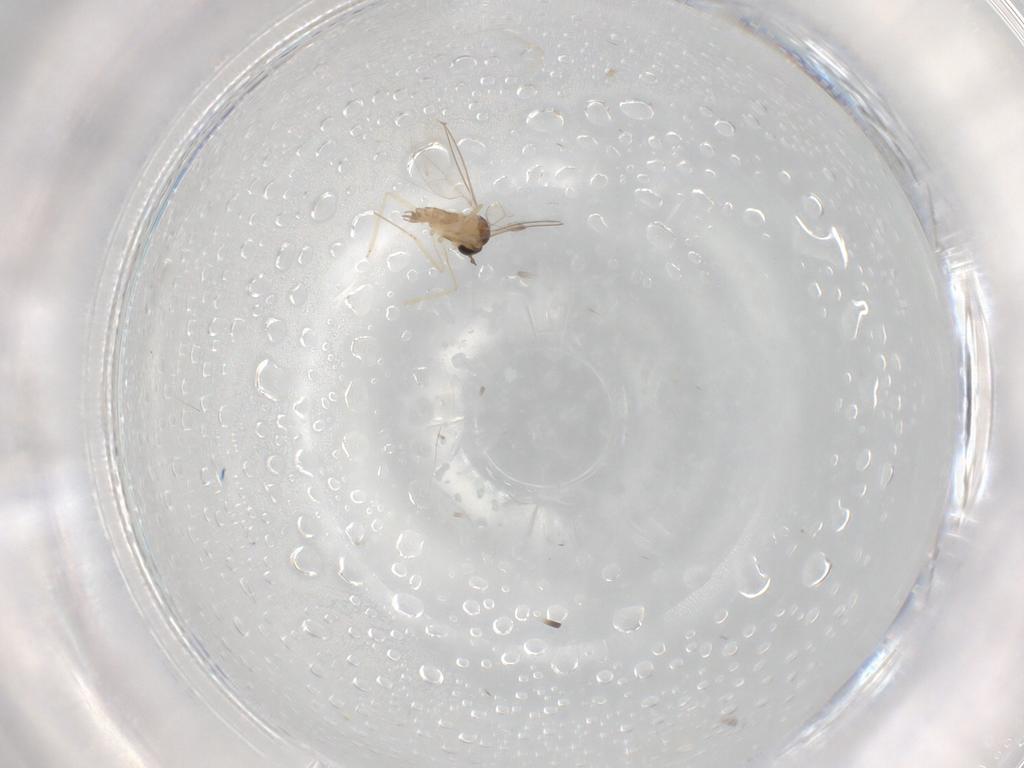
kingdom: Animalia
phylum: Arthropoda
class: Insecta
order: Diptera
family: Cecidomyiidae
